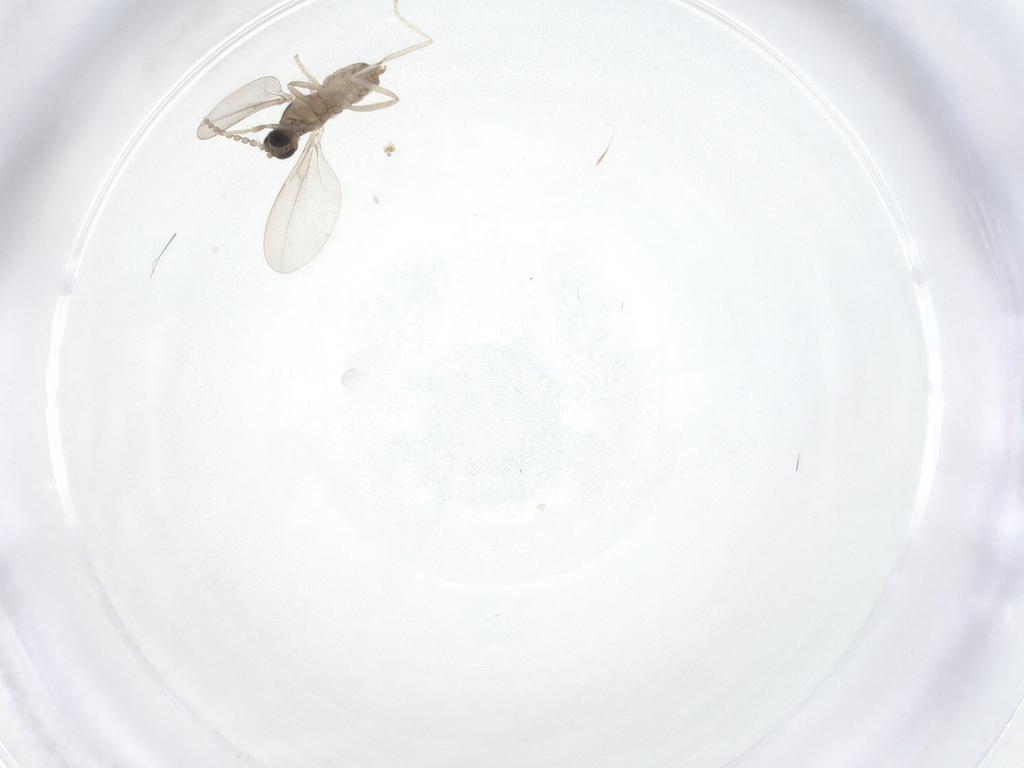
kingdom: Animalia
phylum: Arthropoda
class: Insecta
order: Diptera
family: Cecidomyiidae
